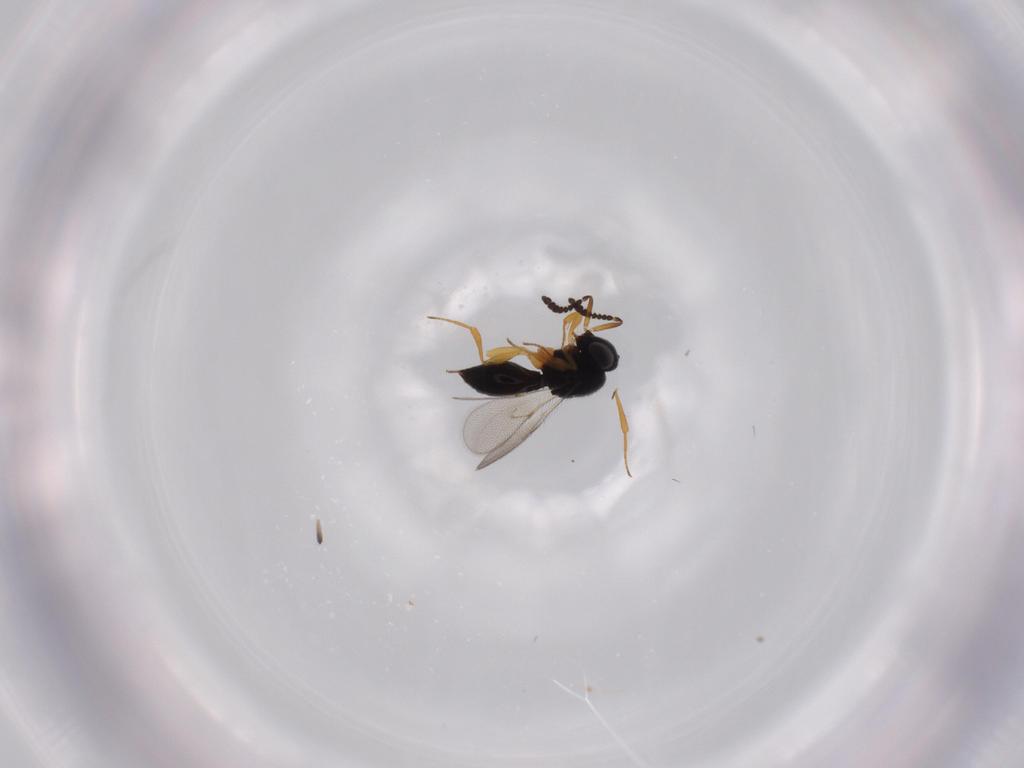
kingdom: Animalia
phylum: Arthropoda
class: Insecta
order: Hymenoptera
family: Scelionidae
